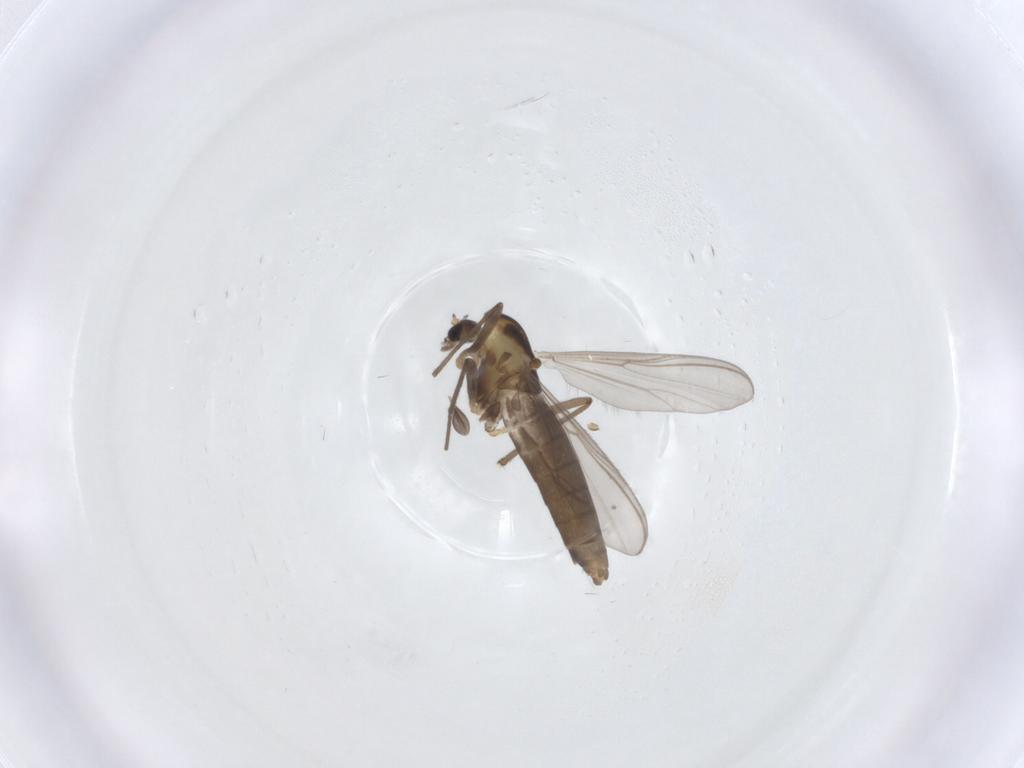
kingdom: Animalia
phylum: Arthropoda
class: Insecta
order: Diptera
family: Chironomidae
